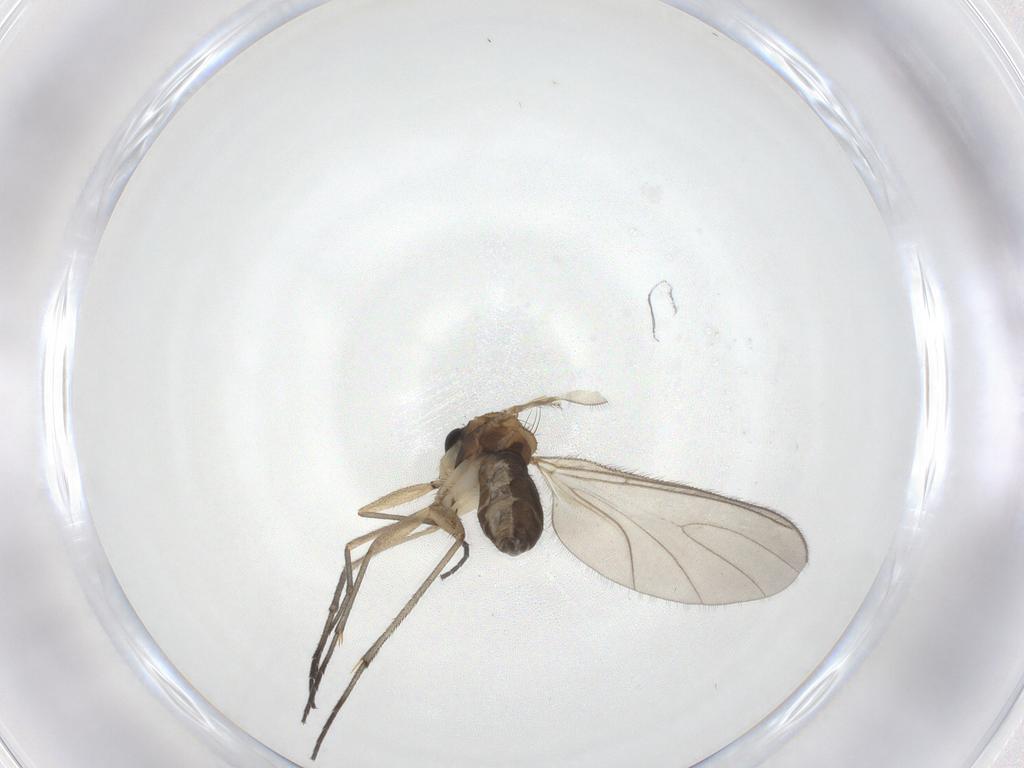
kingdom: Animalia
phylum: Arthropoda
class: Insecta
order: Diptera
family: Sciaridae
